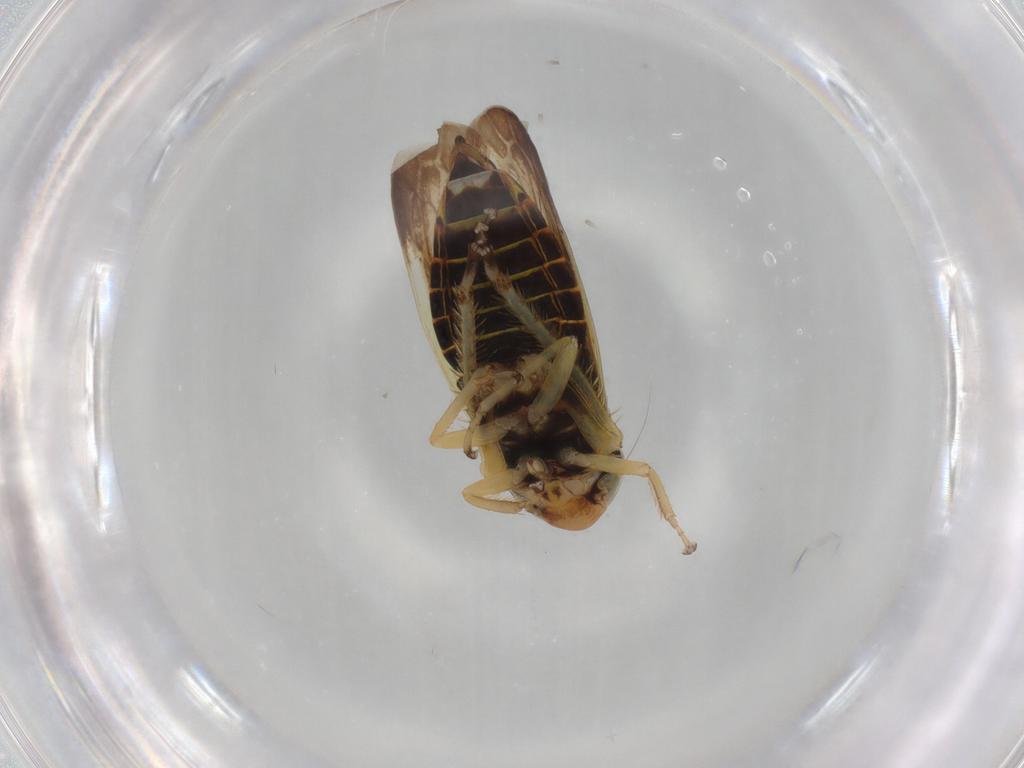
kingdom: Animalia
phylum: Arthropoda
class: Insecta
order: Hemiptera
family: Cicadellidae
